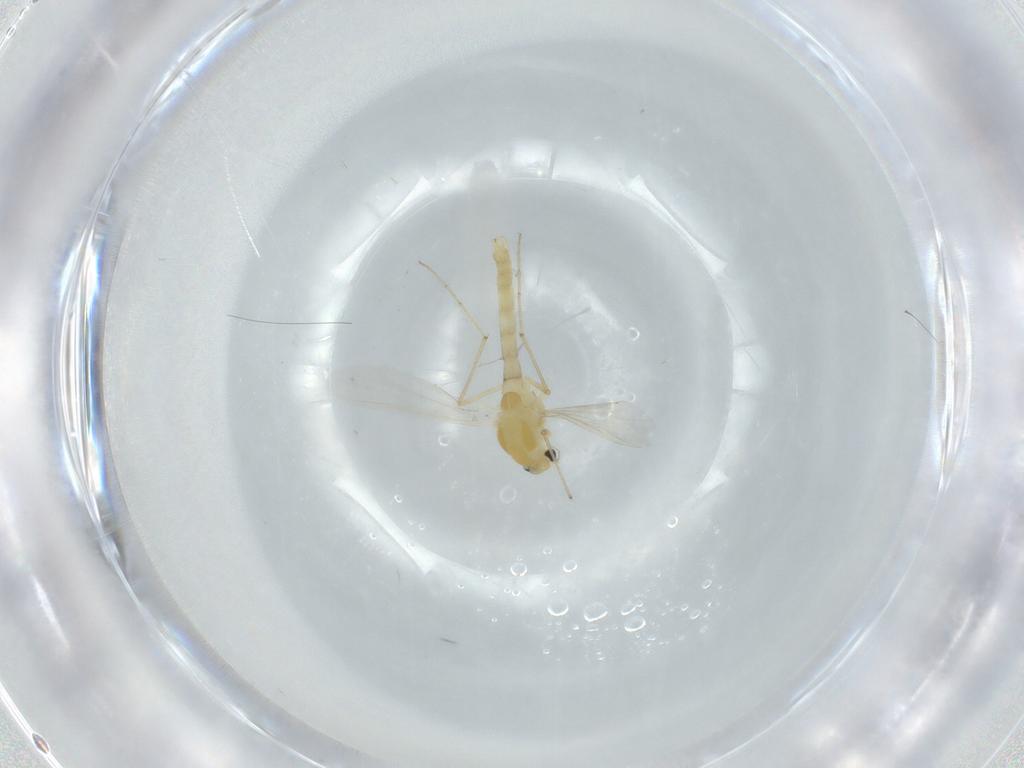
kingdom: Animalia
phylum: Arthropoda
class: Insecta
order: Diptera
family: Chironomidae
